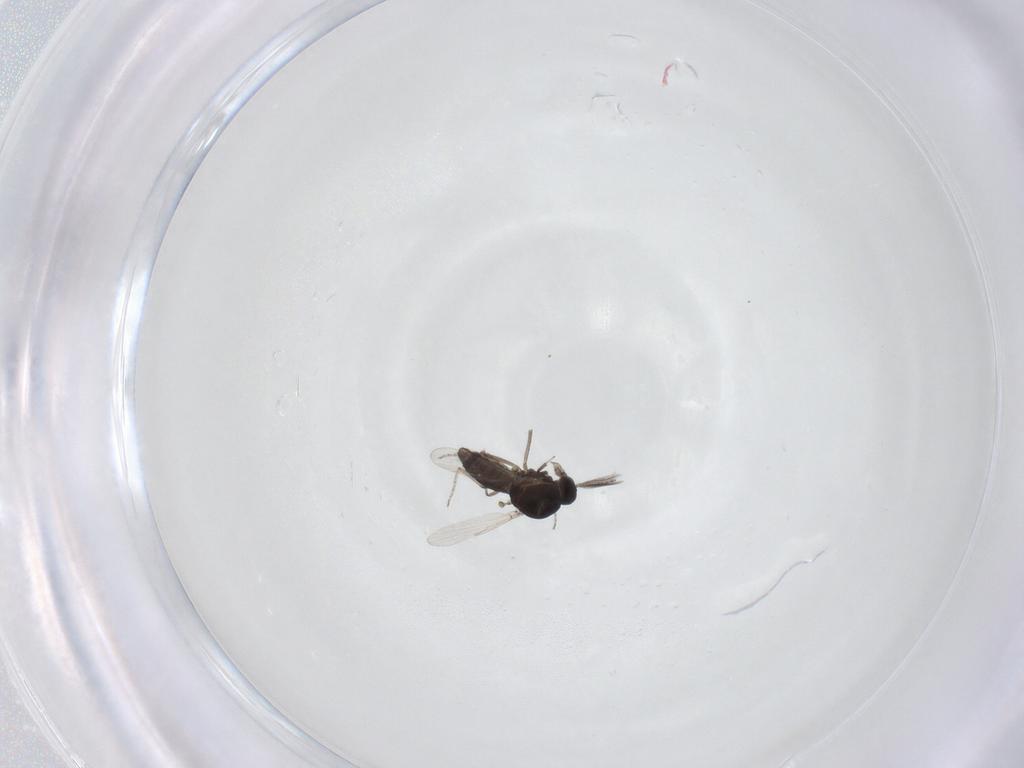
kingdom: Animalia
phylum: Arthropoda
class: Insecta
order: Diptera
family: Ceratopogonidae
